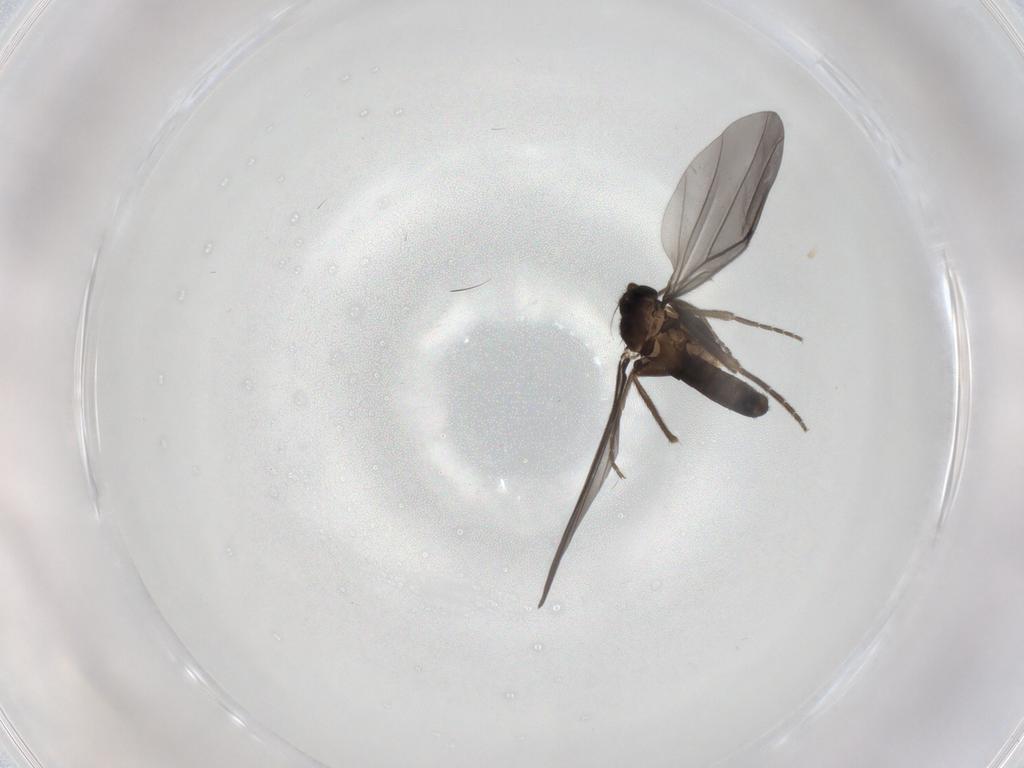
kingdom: Animalia
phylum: Arthropoda
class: Insecta
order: Diptera
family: Phoridae
